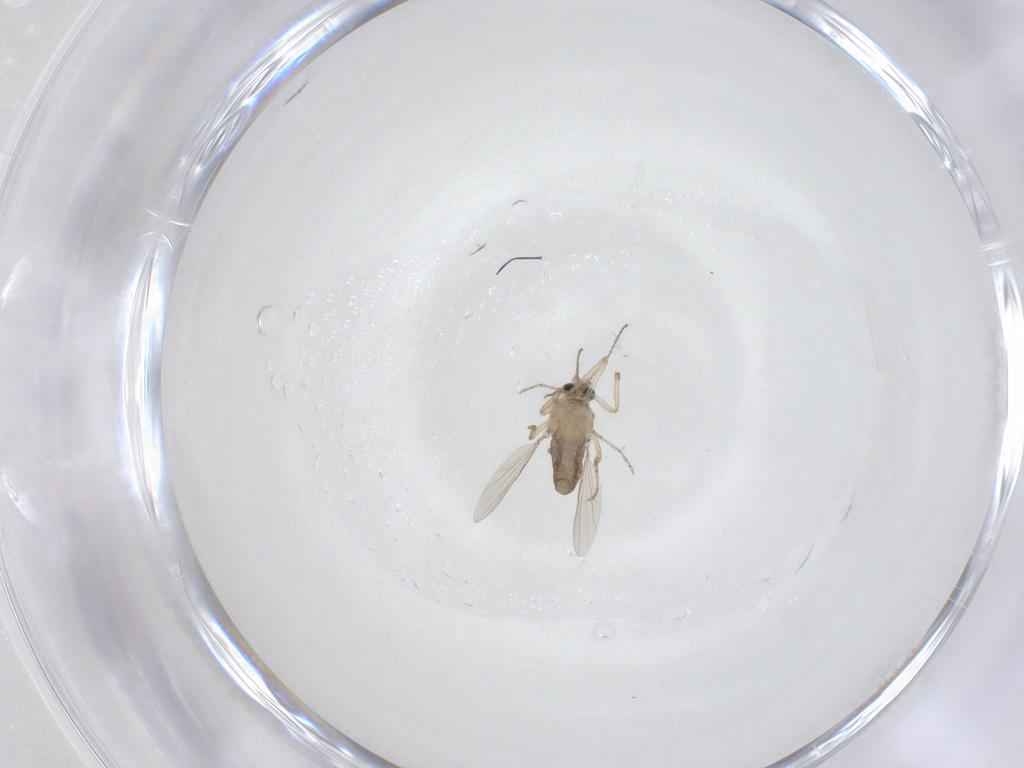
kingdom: Animalia
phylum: Arthropoda
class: Insecta
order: Diptera
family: Ceratopogonidae
